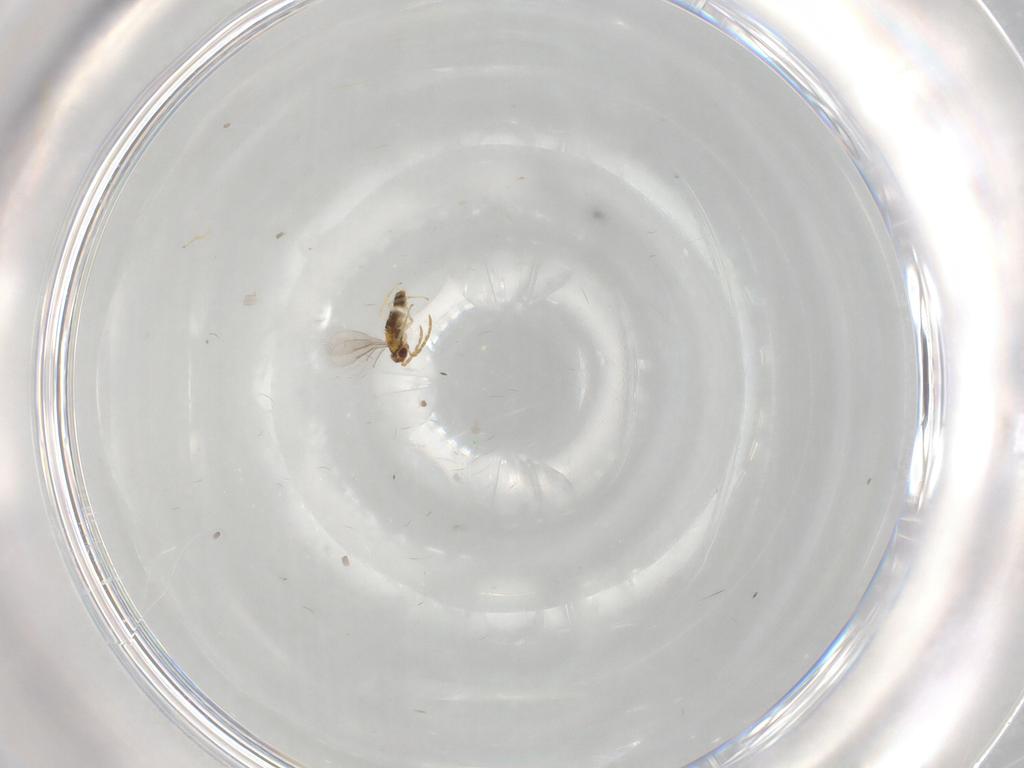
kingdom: Animalia
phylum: Arthropoda
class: Insecta
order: Hymenoptera
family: Aphelinidae
